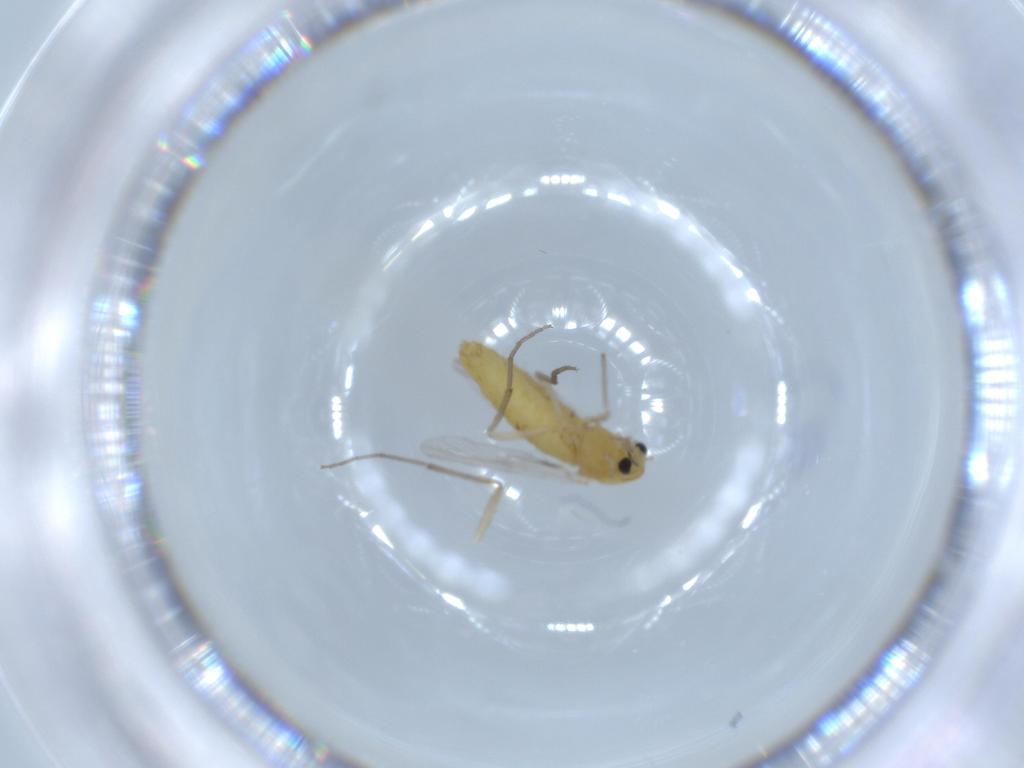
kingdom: Animalia
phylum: Arthropoda
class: Insecta
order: Diptera
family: Chironomidae
